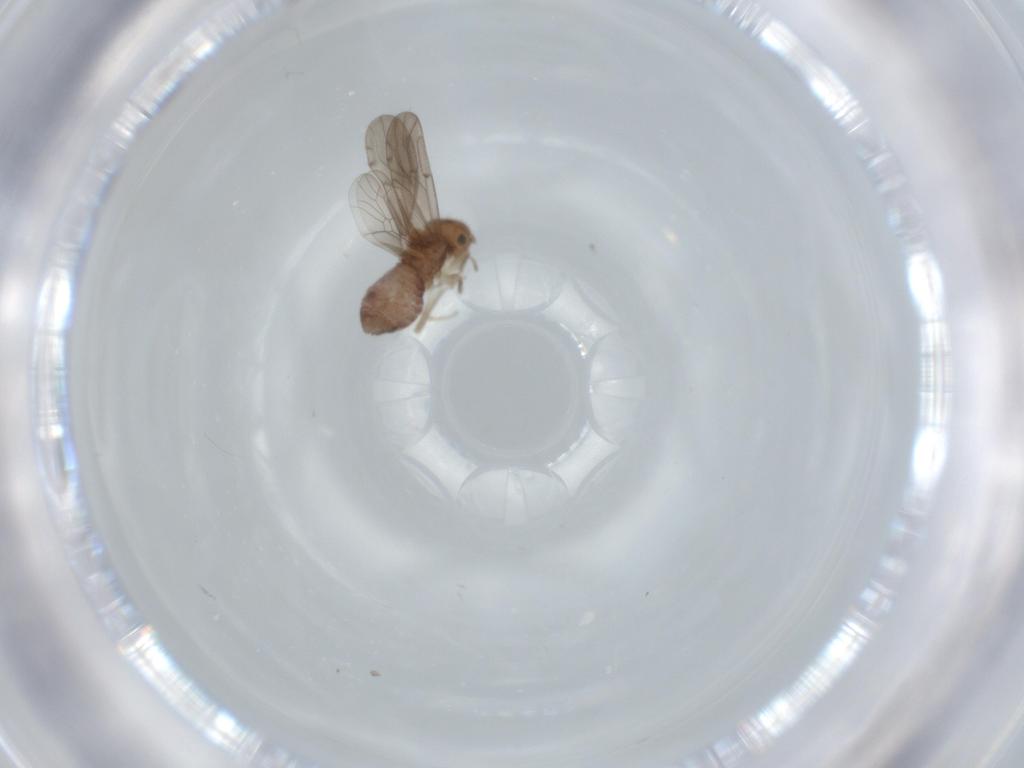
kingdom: Animalia
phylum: Arthropoda
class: Insecta
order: Psocodea
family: Ectopsocidae
